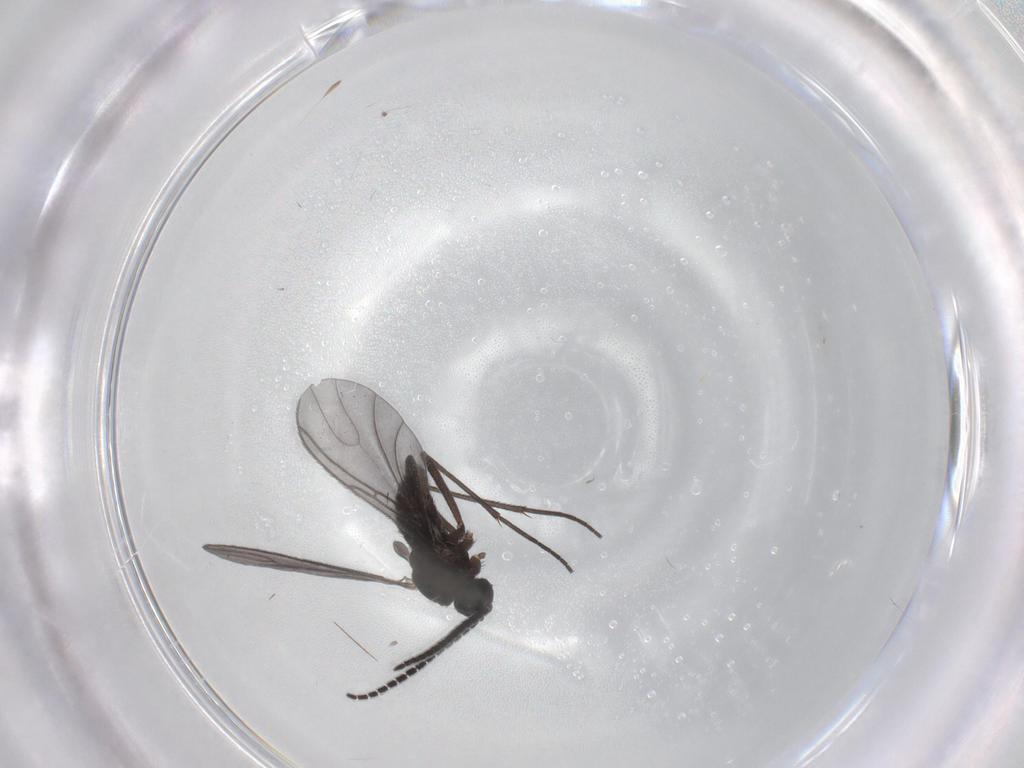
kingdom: Animalia
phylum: Arthropoda
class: Insecta
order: Diptera
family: Sciaridae
